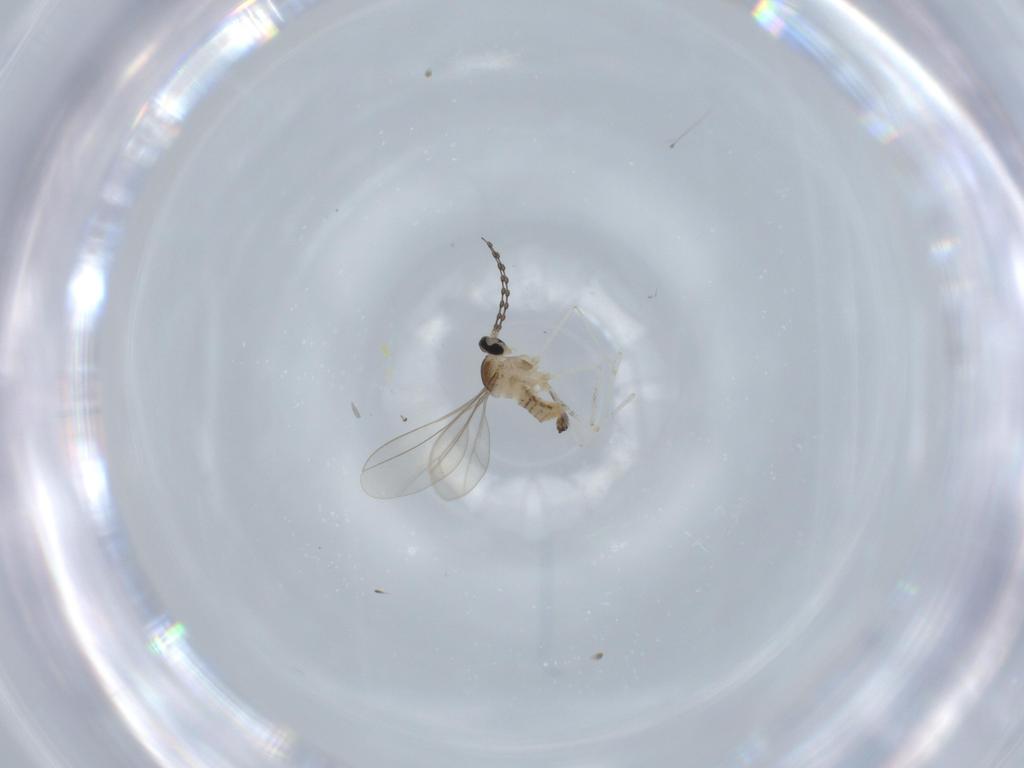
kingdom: Animalia
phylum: Arthropoda
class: Insecta
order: Diptera
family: Cecidomyiidae
